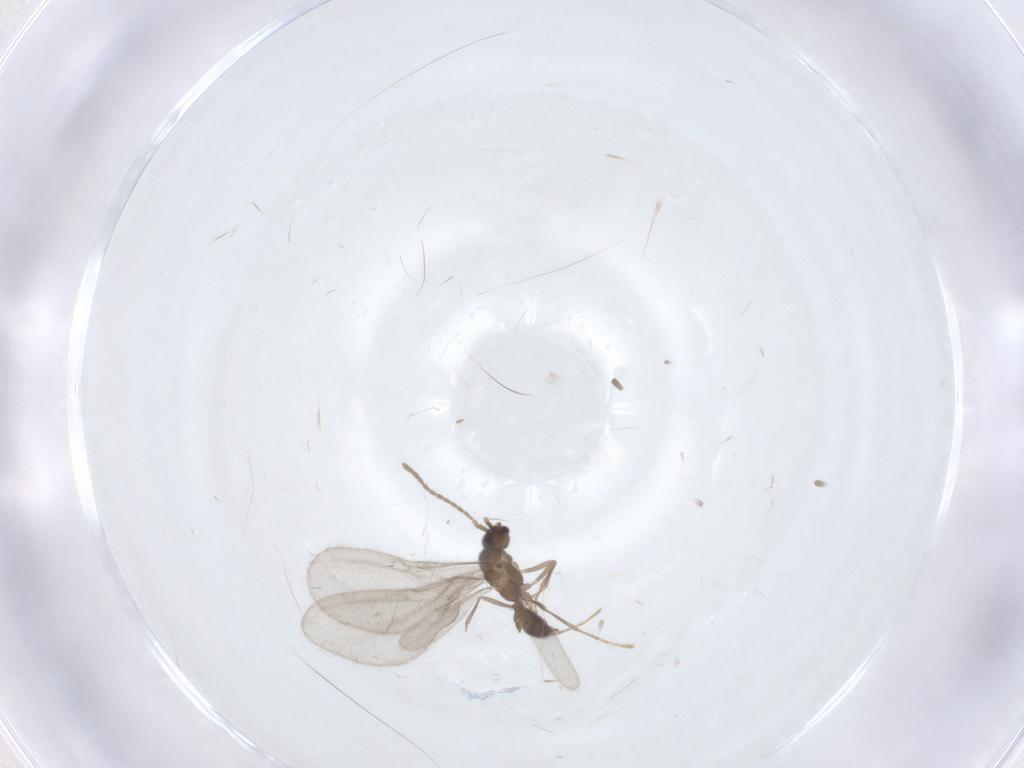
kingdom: Animalia
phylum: Arthropoda
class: Insecta
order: Hymenoptera
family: Formicidae
